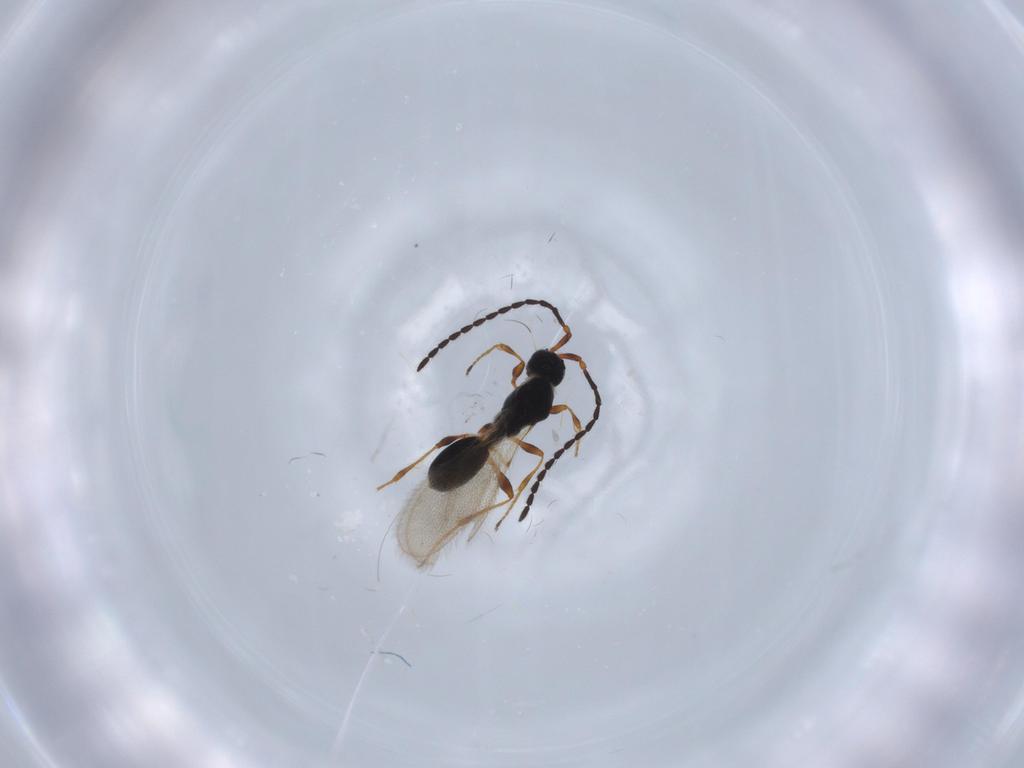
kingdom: Animalia
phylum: Arthropoda
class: Insecta
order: Hymenoptera
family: Diapriidae
